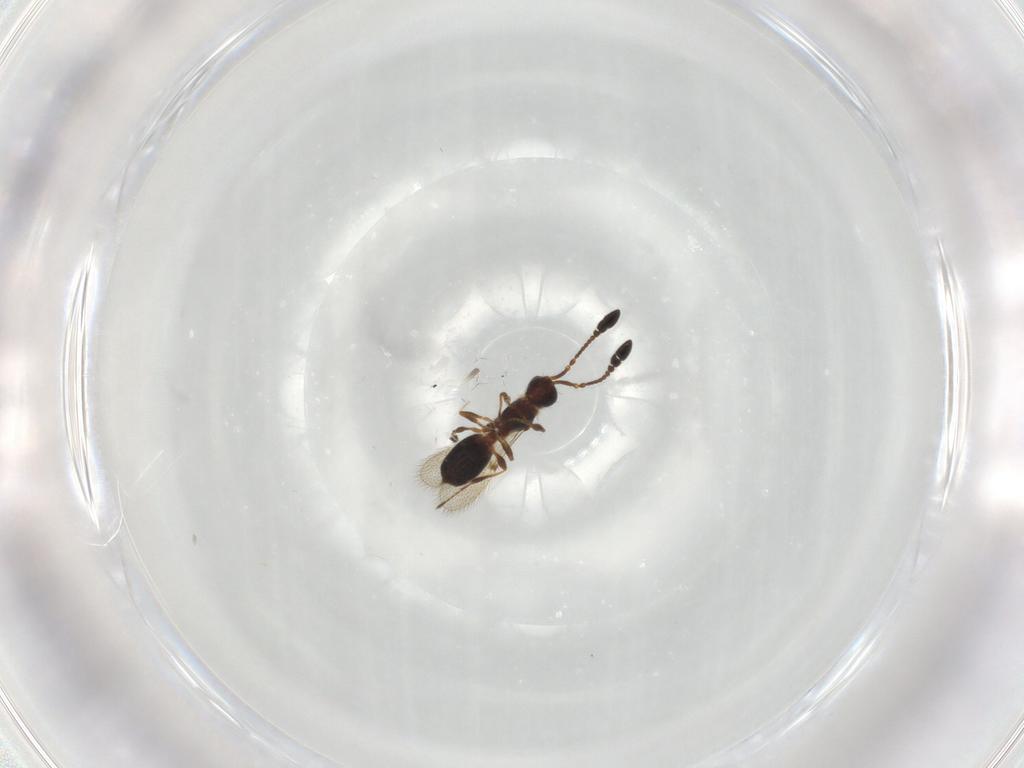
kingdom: Animalia
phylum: Arthropoda
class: Insecta
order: Hymenoptera
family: Diapriidae
